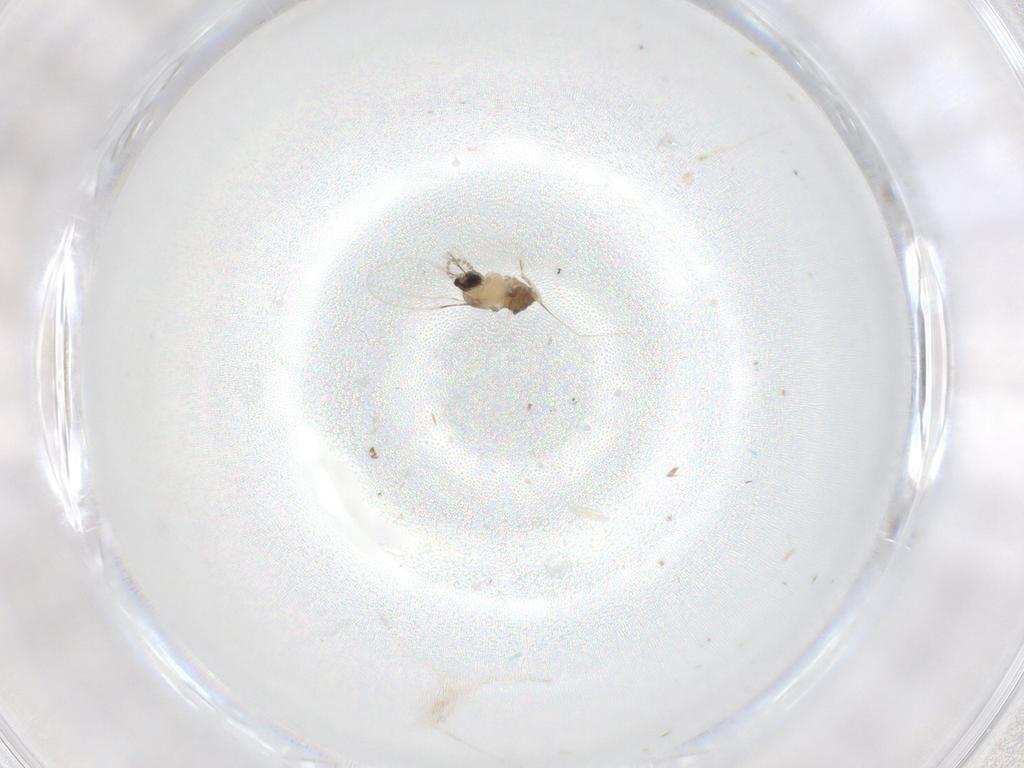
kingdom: Animalia
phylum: Arthropoda
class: Insecta
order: Diptera
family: Cecidomyiidae
